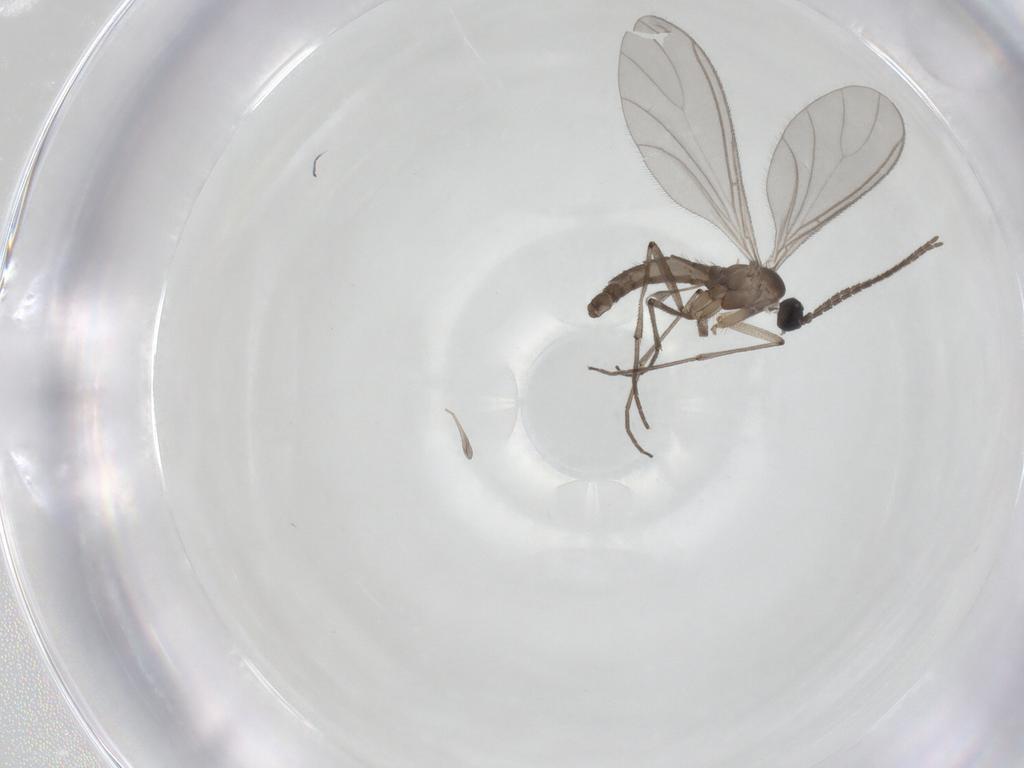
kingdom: Animalia
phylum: Arthropoda
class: Insecta
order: Diptera
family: Sciaridae
